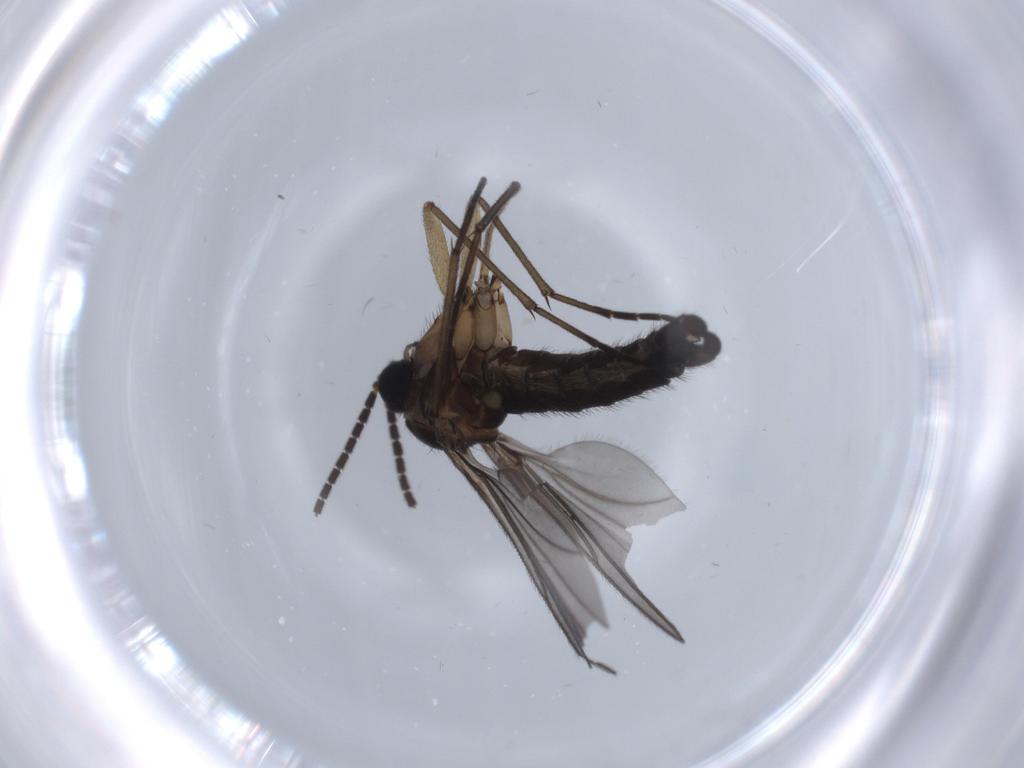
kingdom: Animalia
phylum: Arthropoda
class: Insecta
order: Diptera
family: Sciaridae
